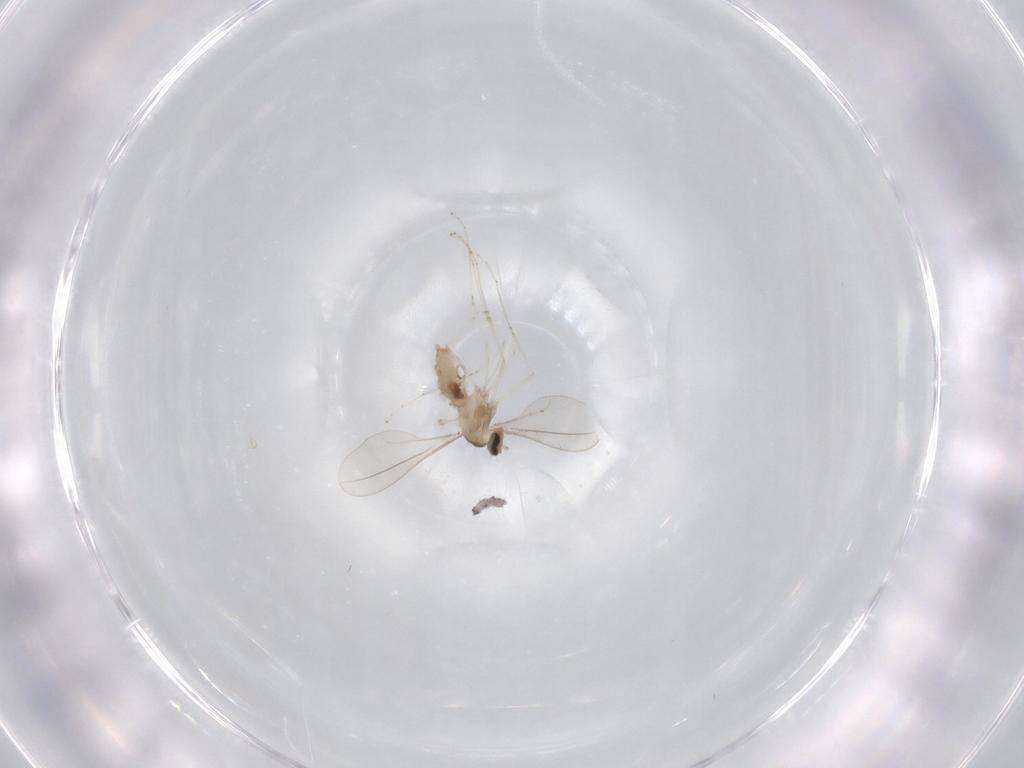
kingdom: Animalia
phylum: Arthropoda
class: Insecta
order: Diptera
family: Cecidomyiidae
